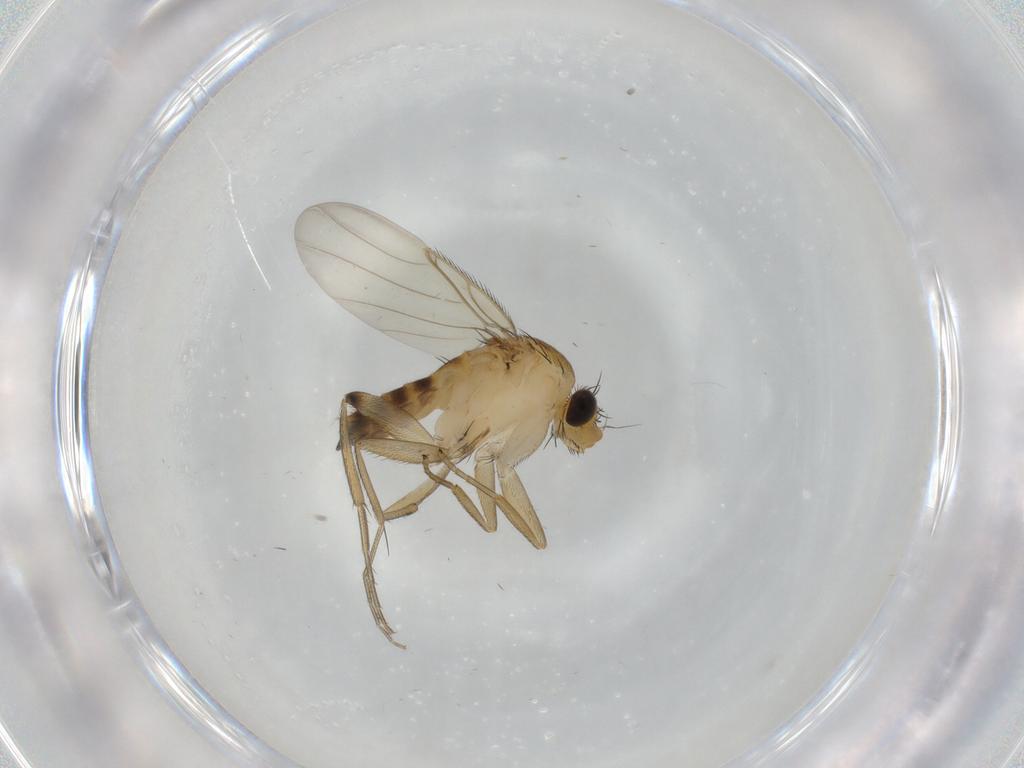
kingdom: Animalia
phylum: Arthropoda
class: Insecta
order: Diptera
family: Phoridae
